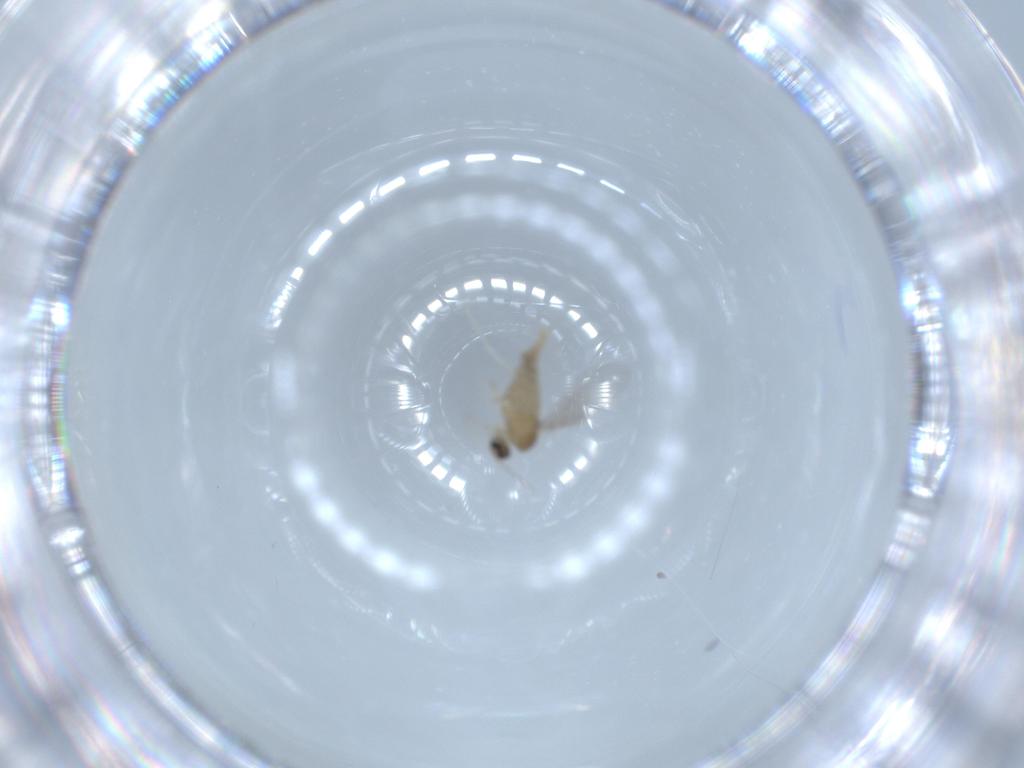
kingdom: Animalia
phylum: Arthropoda
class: Insecta
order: Diptera
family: Cecidomyiidae
